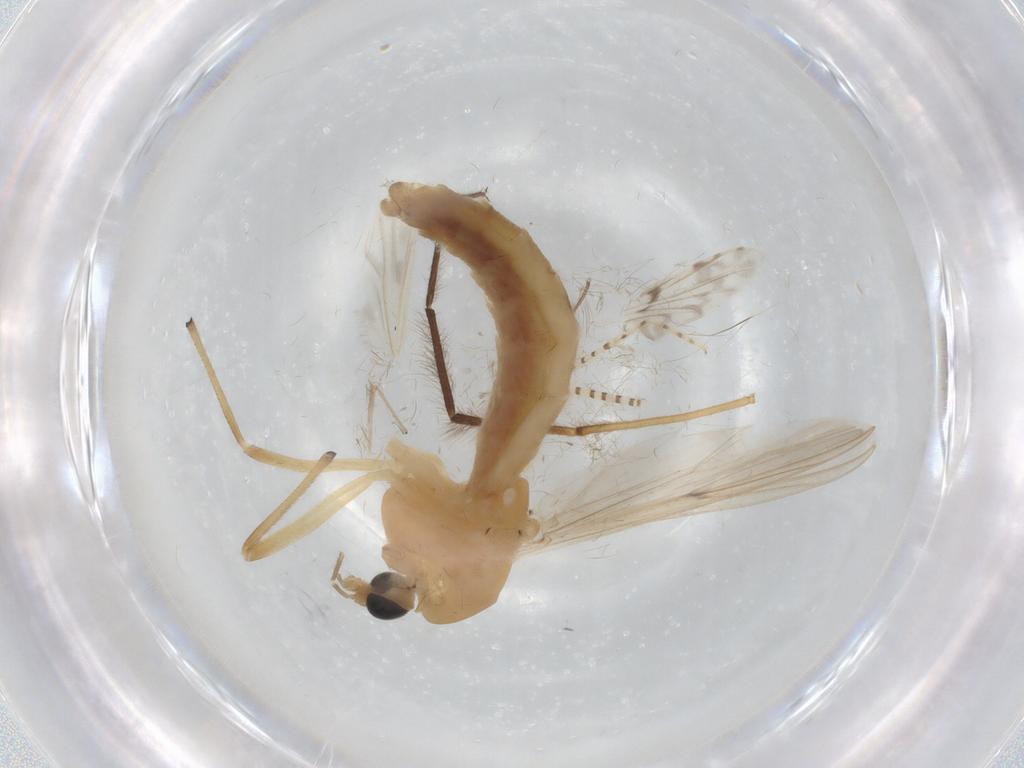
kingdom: Animalia
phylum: Arthropoda
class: Insecta
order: Diptera
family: Chironomidae
